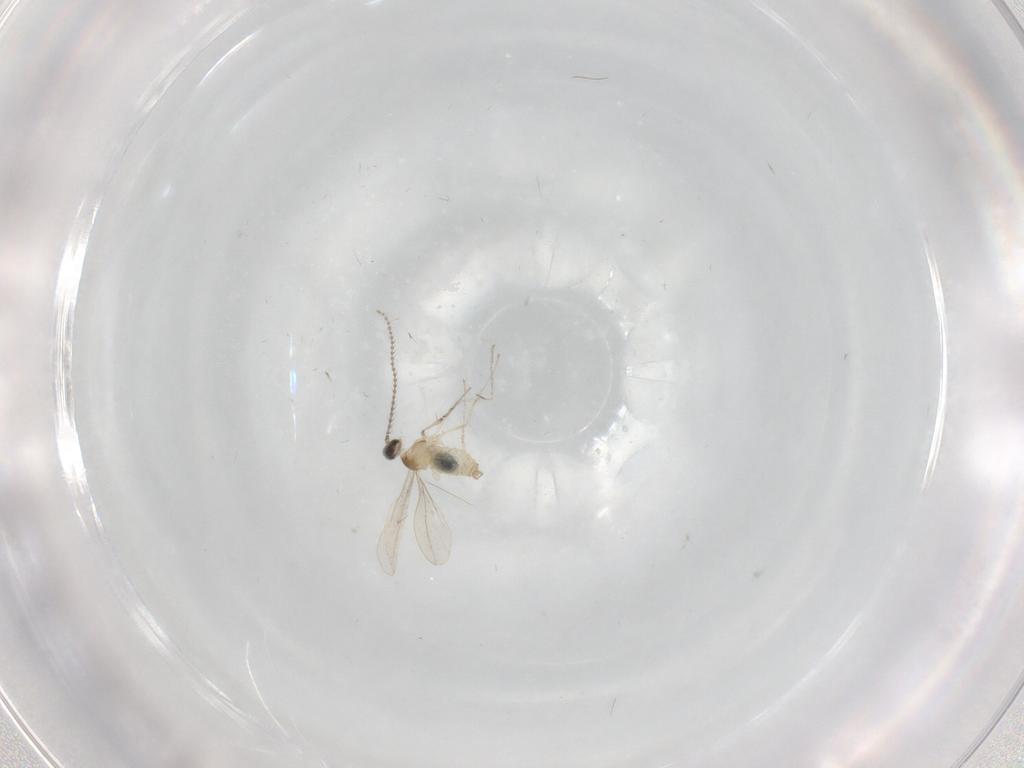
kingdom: Animalia
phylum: Arthropoda
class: Insecta
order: Diptera
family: Cecidomyiidae
